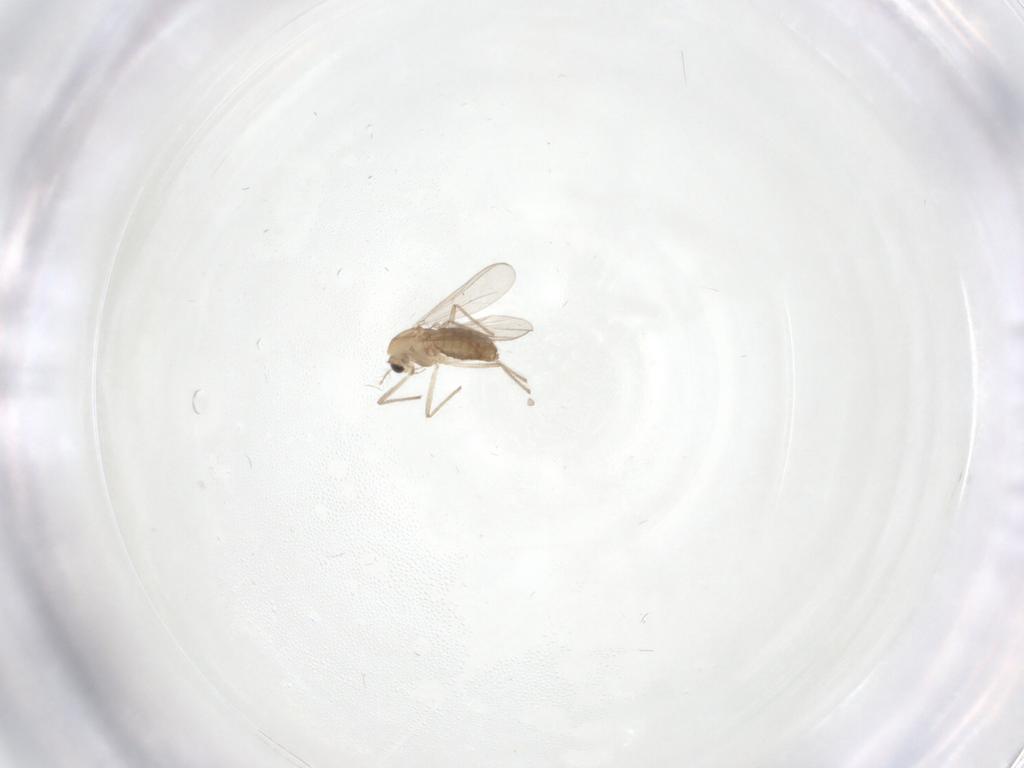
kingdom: Animalia
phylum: Arthropoda
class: Insecta
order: Diptera
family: Chironomidae
